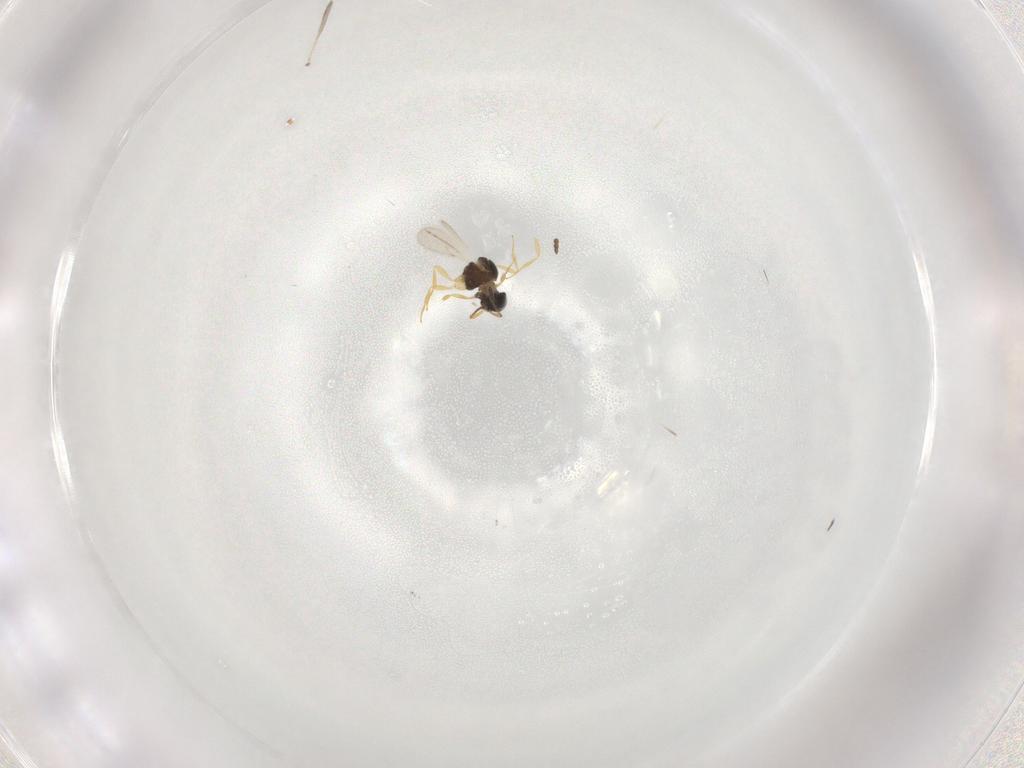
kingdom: Animalia
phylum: Arthropoda
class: Insecta
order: Hymenoptera
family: Scelionidae
